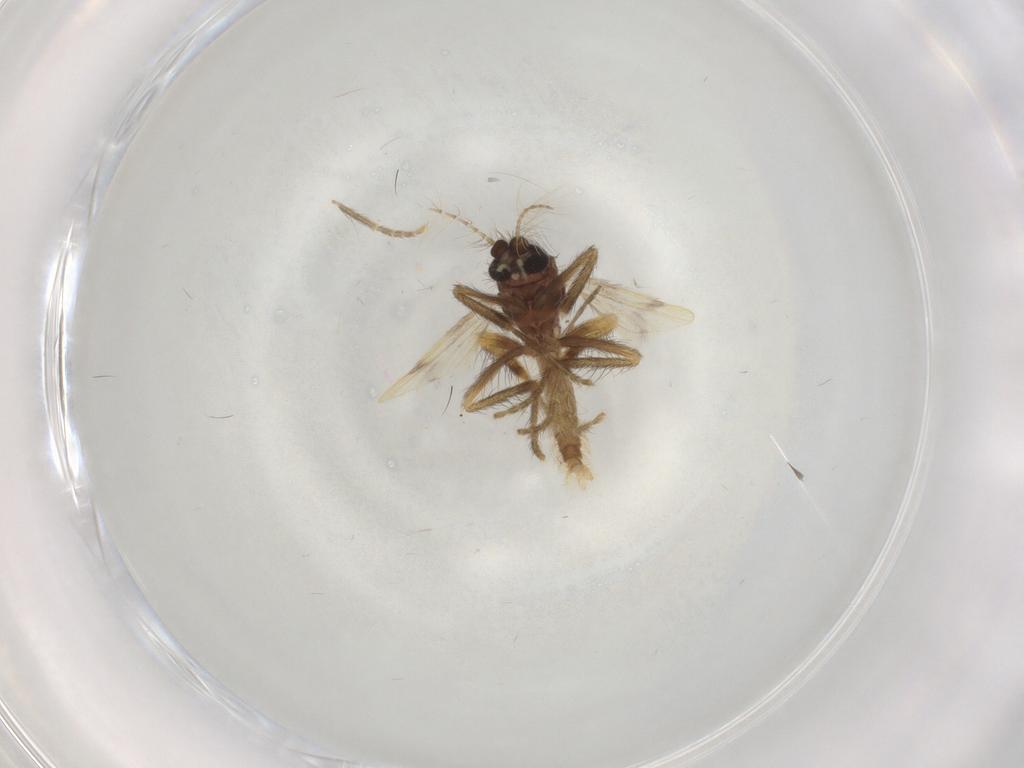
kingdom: Animalia
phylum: Arthropoda
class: Insecta
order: Diptera
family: Corethrellidae
